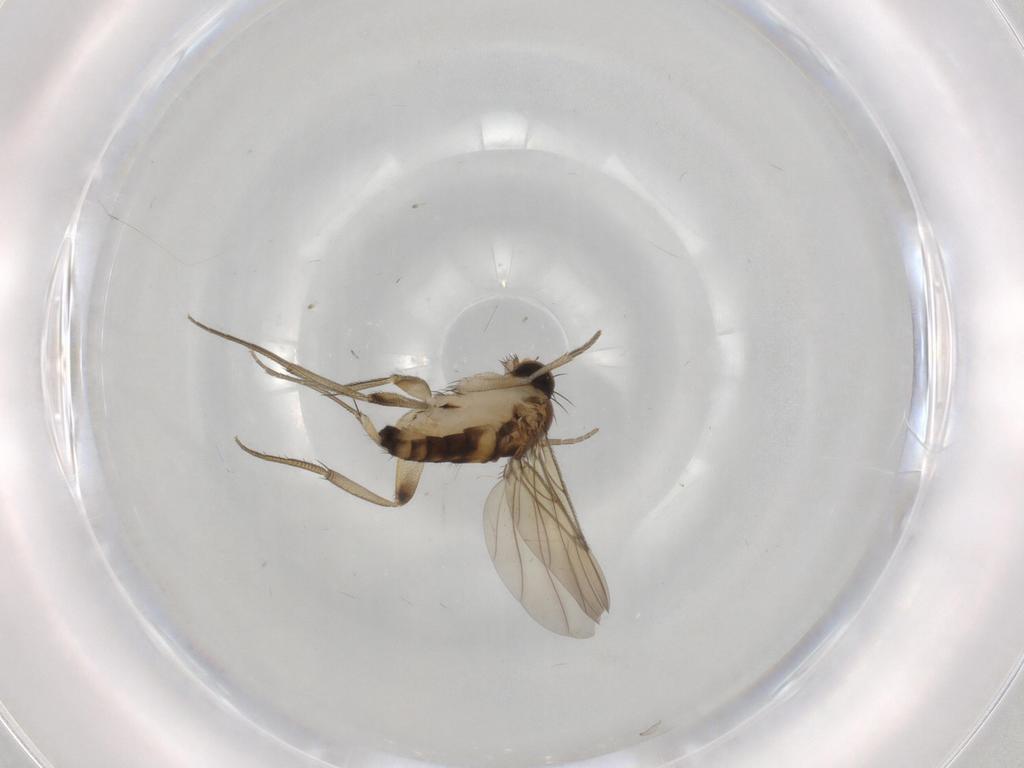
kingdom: Animalia
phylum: Arthropoda
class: Insecta
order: Diptera
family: Phoridae
